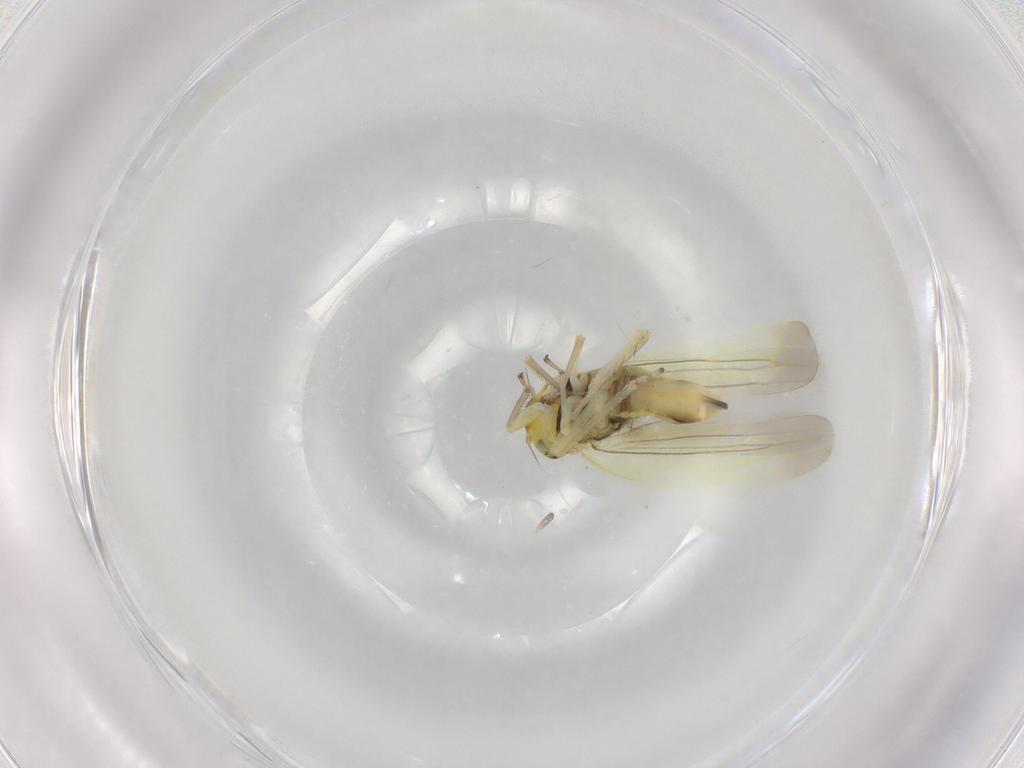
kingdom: Animalia
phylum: Arthropoda
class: Insecta
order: Hemiptera
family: Cicadellidae
